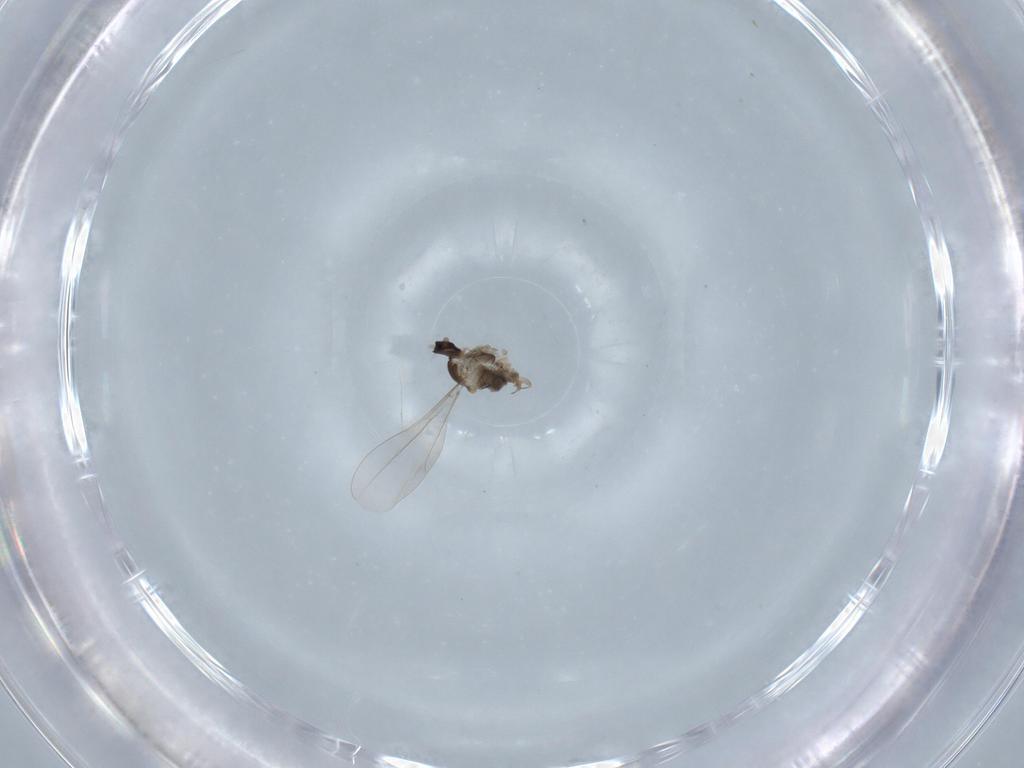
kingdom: Animalia
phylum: Arthropoda
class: Insecta
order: Diptera
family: Cecidomyiidae
